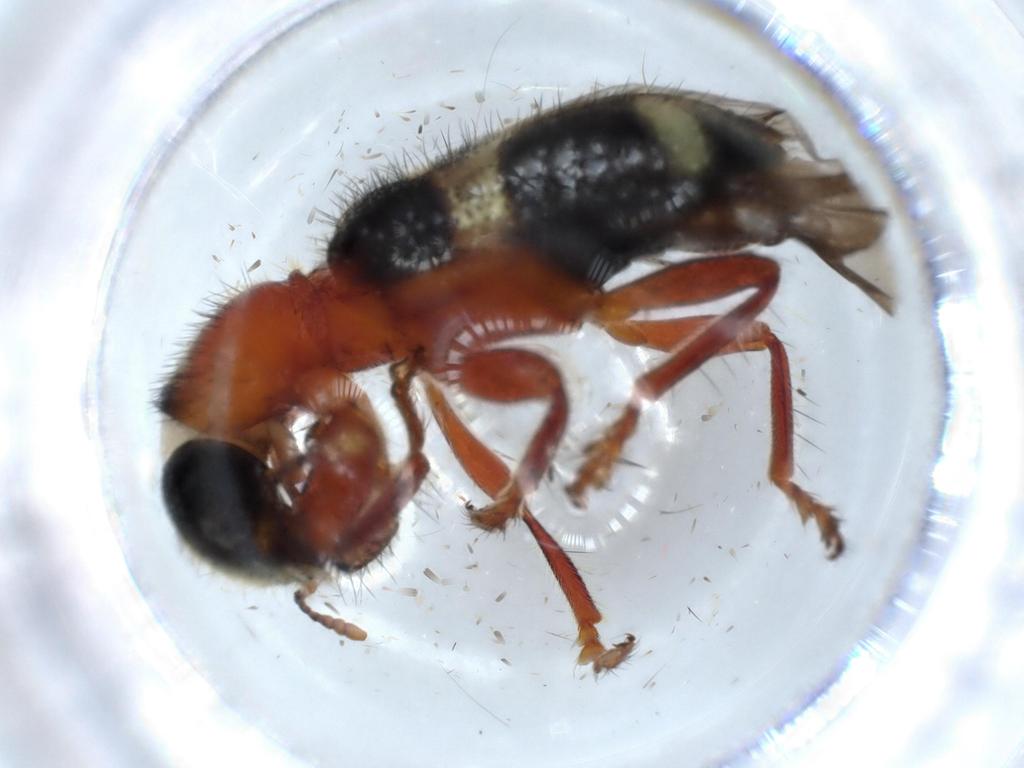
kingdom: Animalia
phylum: Arthropoda
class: Insecta
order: Coleoptera
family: Cleridae
